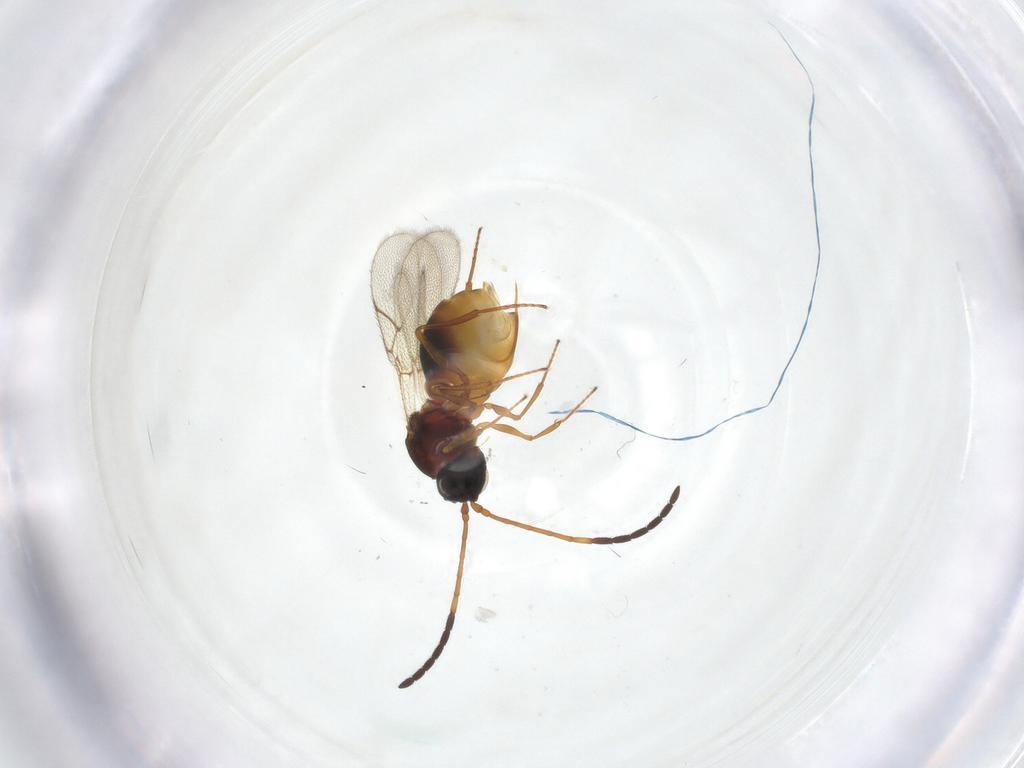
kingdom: Animalia
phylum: Arthropoda
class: Insecta
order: Hymenoptera
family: Figitidae
